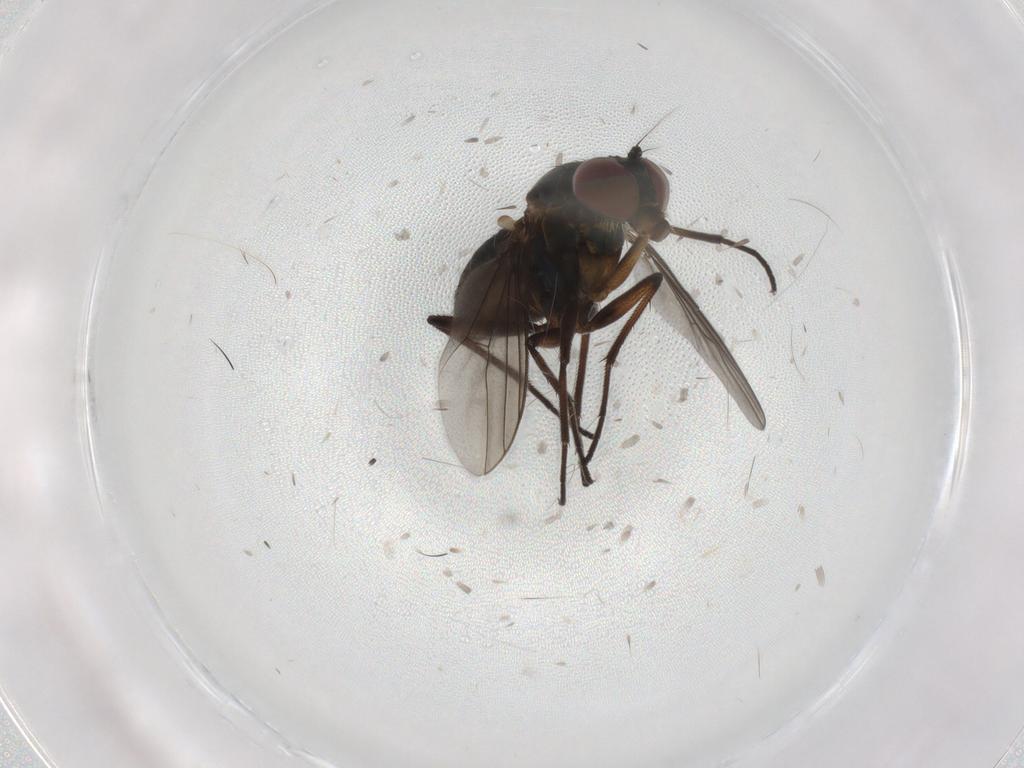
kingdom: Animalia
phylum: Arthropoda
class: Insecta
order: Diptera
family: Dolichopodidae
